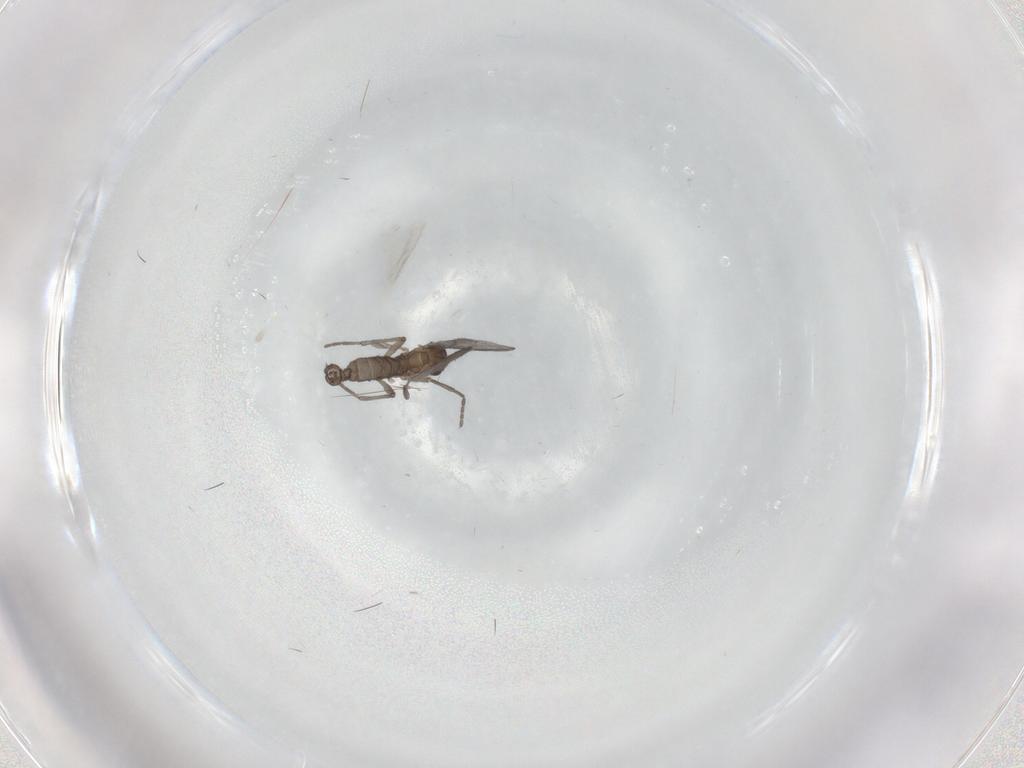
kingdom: Animalia
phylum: Arthropoda
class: Insecta
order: Diptera
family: Sciaridae
